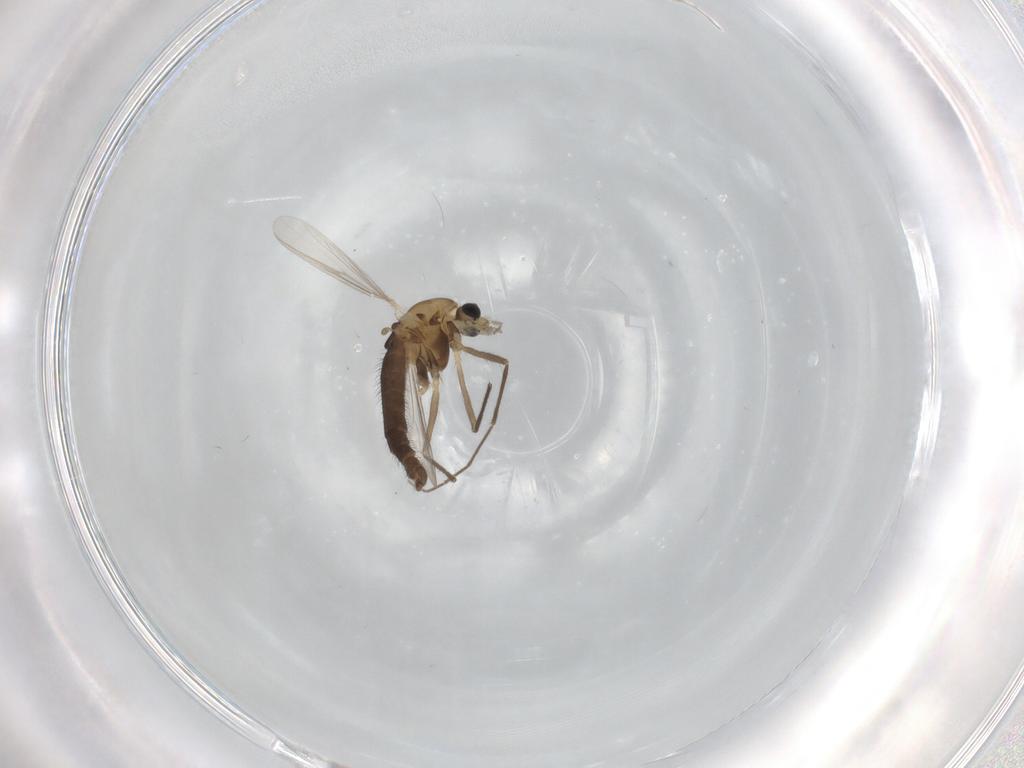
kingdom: Animalia
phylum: Arthropoda
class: Insecta
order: Diptera
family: Chironomidae
